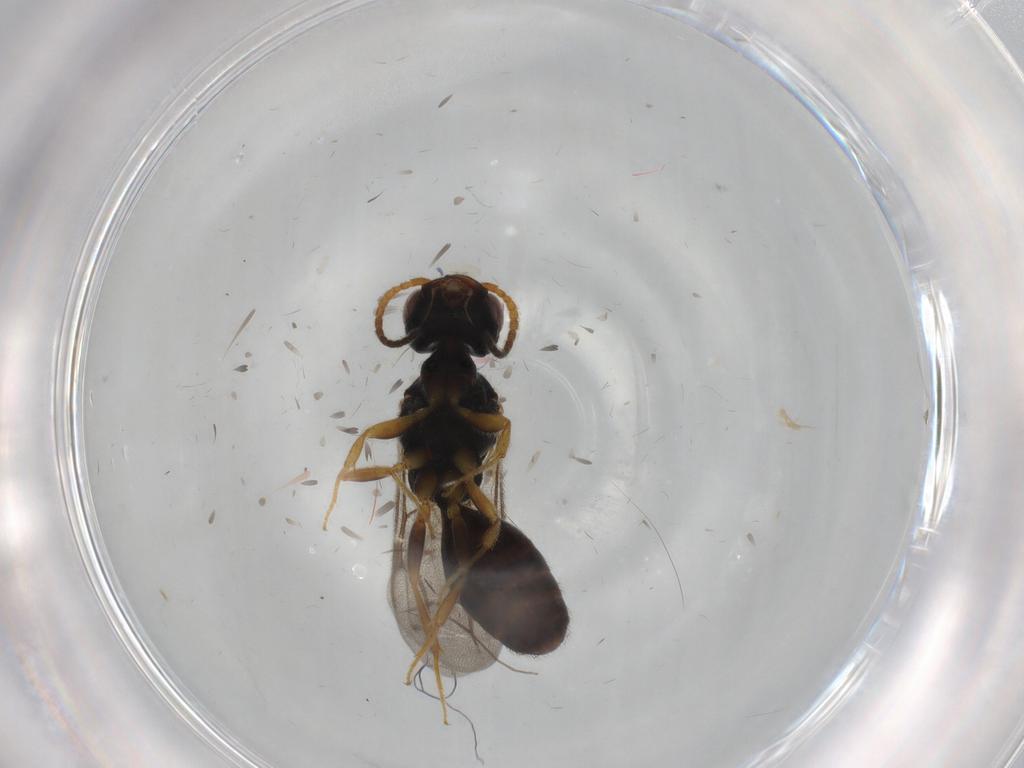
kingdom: Animalia
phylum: Arthropoda
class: Insecta
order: Hymenoptera
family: Bethylidae
